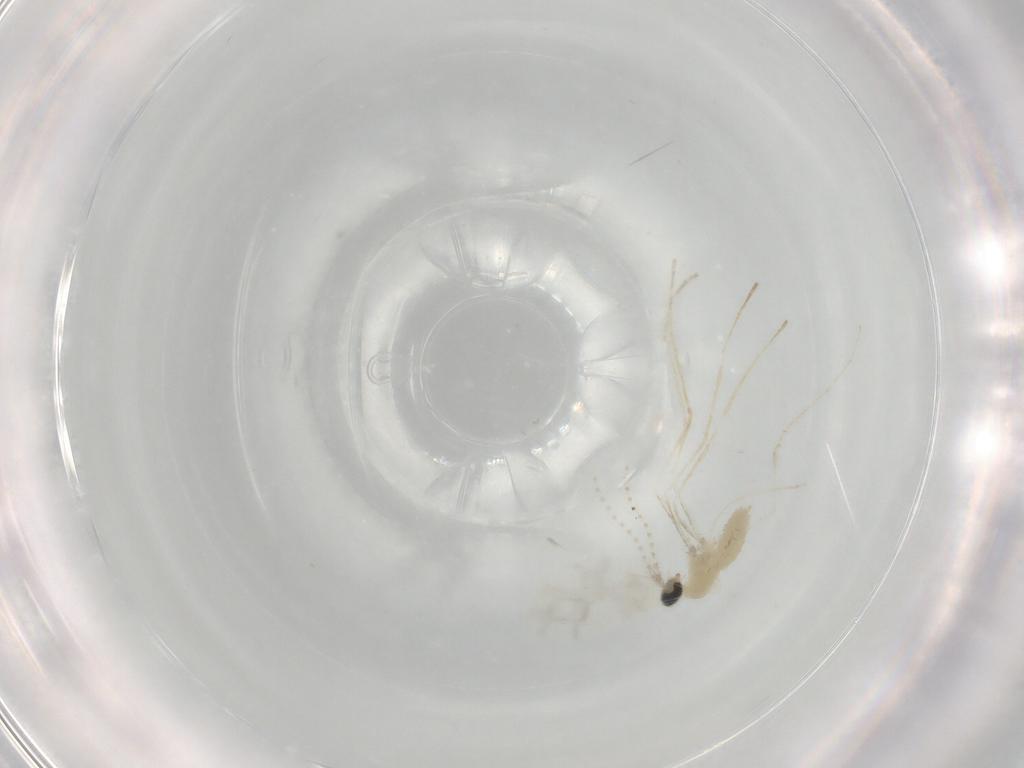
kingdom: Animalia
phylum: Arthropoda
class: Insecta
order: Diptera
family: Cecidomyiidae
